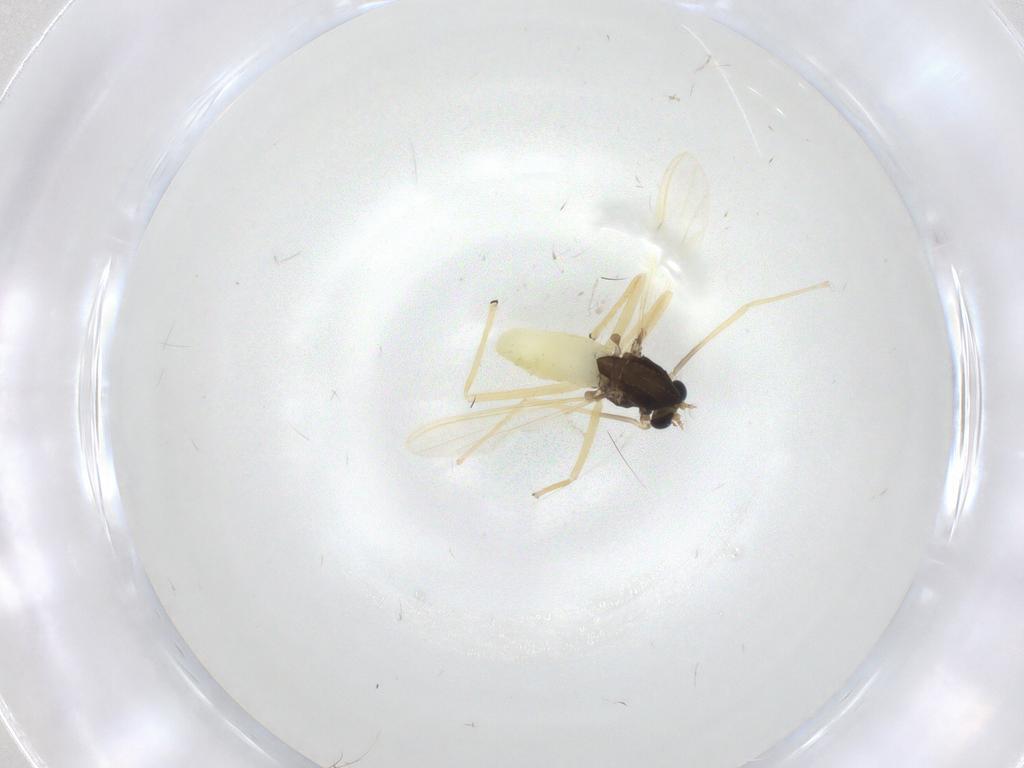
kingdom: Animalia
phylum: Arthropoda
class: Insecta
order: Diptera
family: Chironomidae
